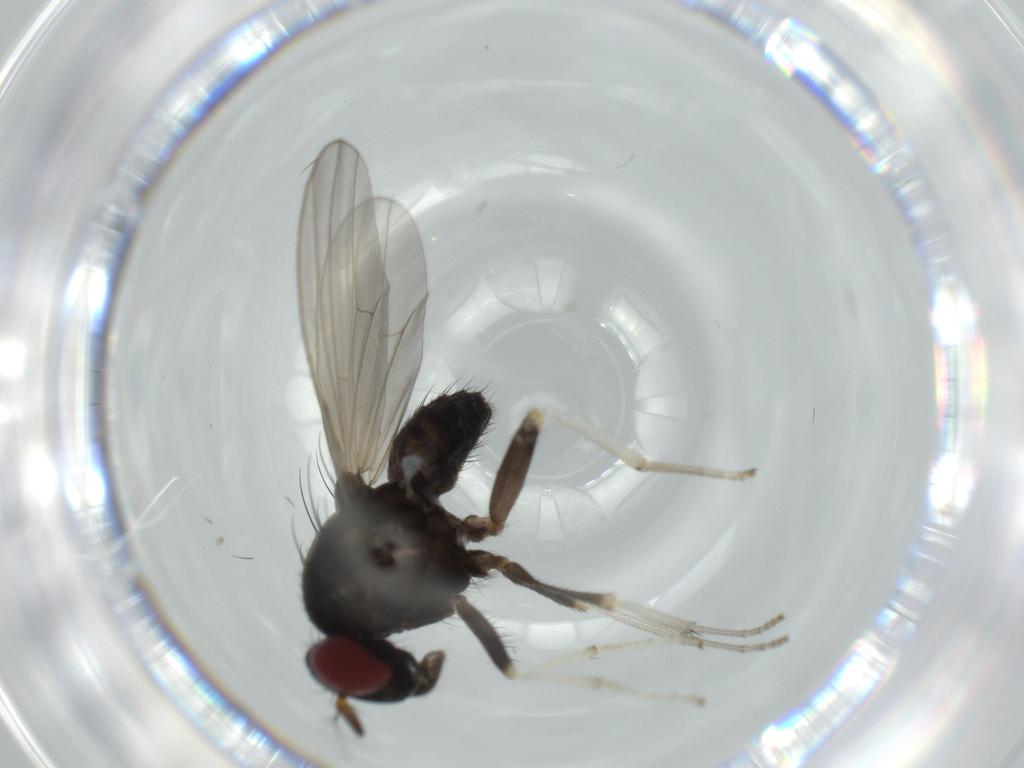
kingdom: Animalia
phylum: Arthropoda
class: Insecta
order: Diptera
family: Lauxaniidae
